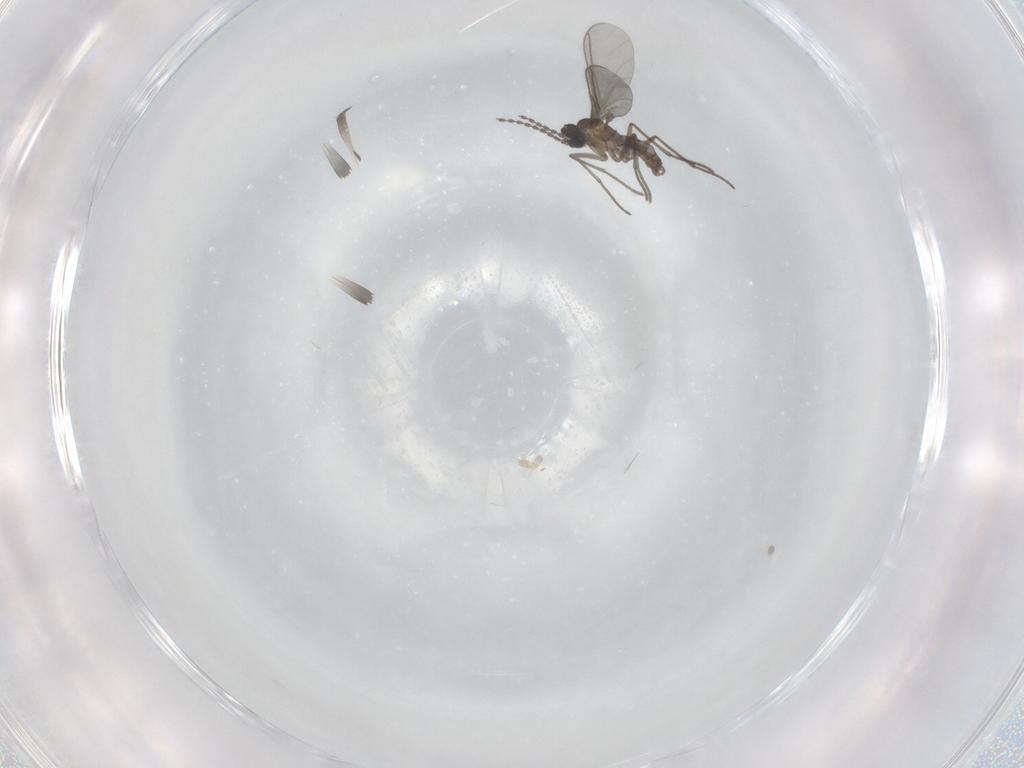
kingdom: Animalia
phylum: Arthropoda
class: Insecta
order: Diptera
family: Limoniidae
